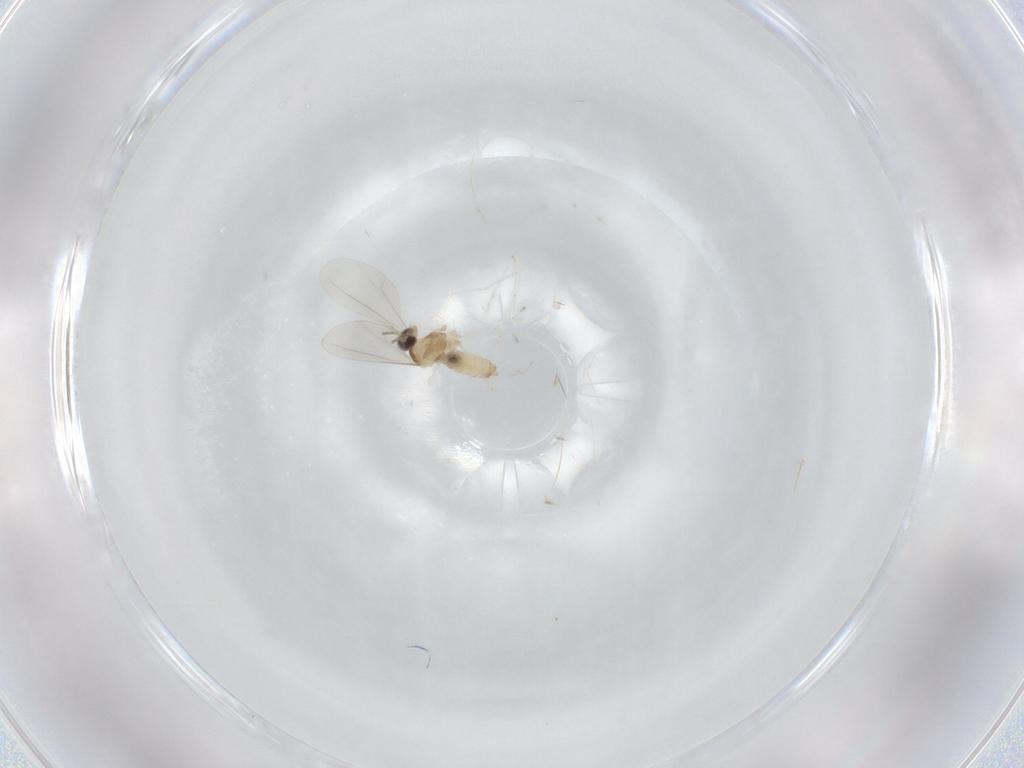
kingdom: Animalia
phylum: Arthropoda
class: Insecta
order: Diptera
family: Cecidomyiidae
